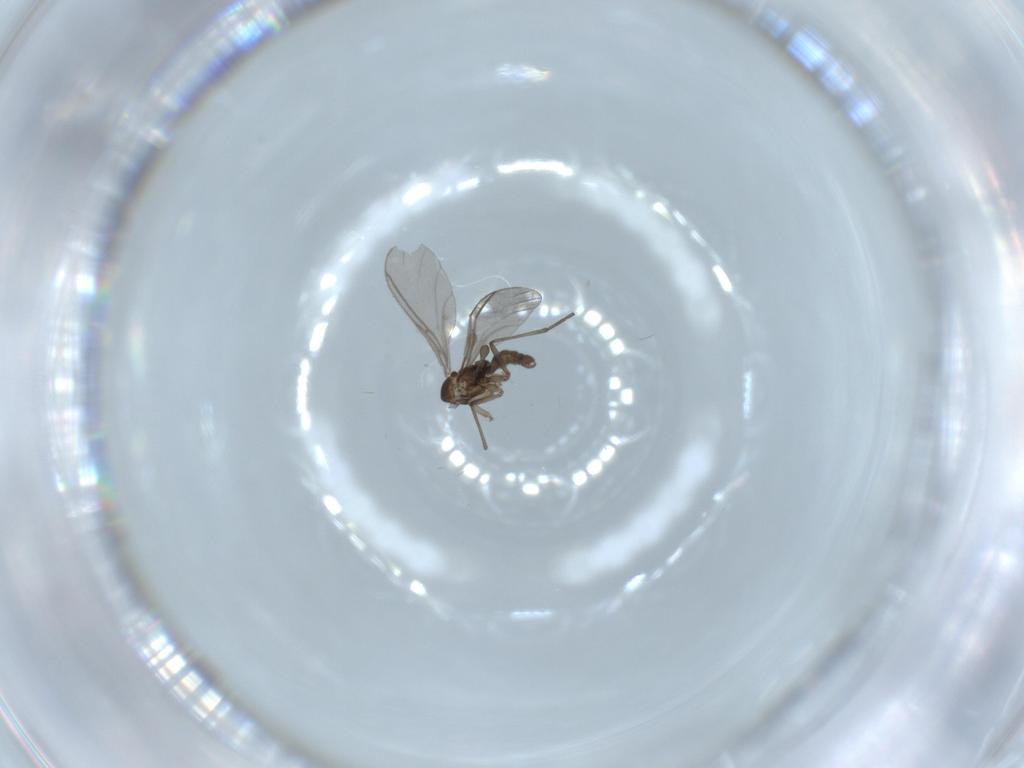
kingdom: Animalia
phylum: Arthropoda
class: Insecta
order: Diptera
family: Sciaridae
